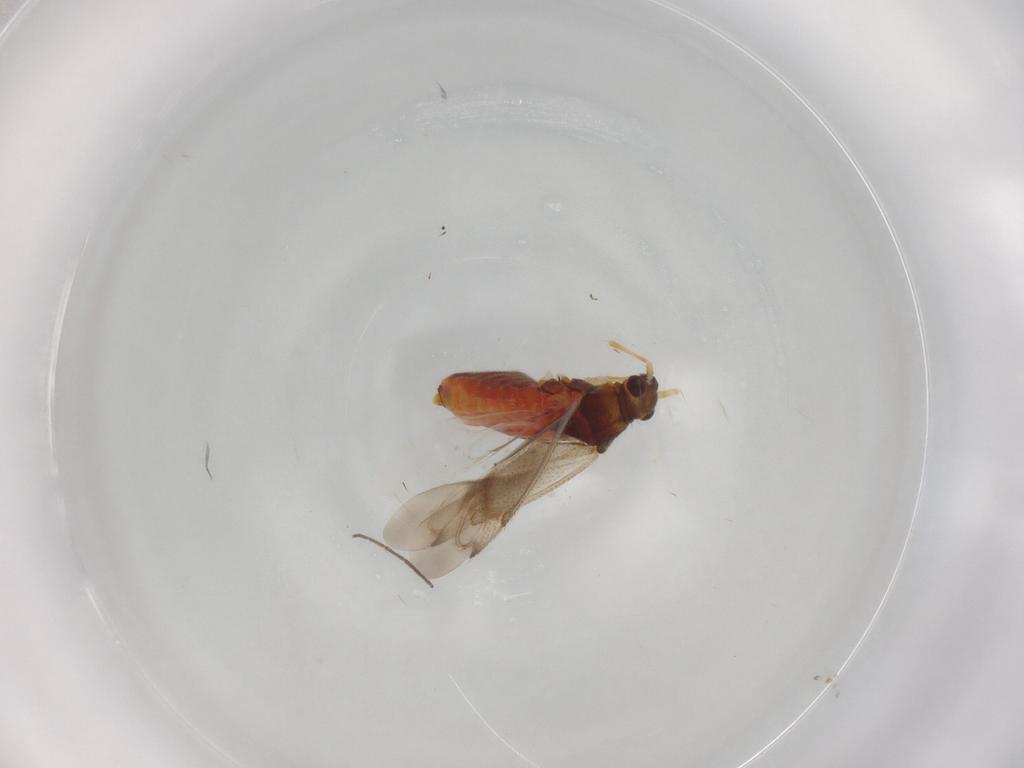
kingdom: Animalia
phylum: Arthropoda
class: Insecta
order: Hemiptera
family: Miridae
